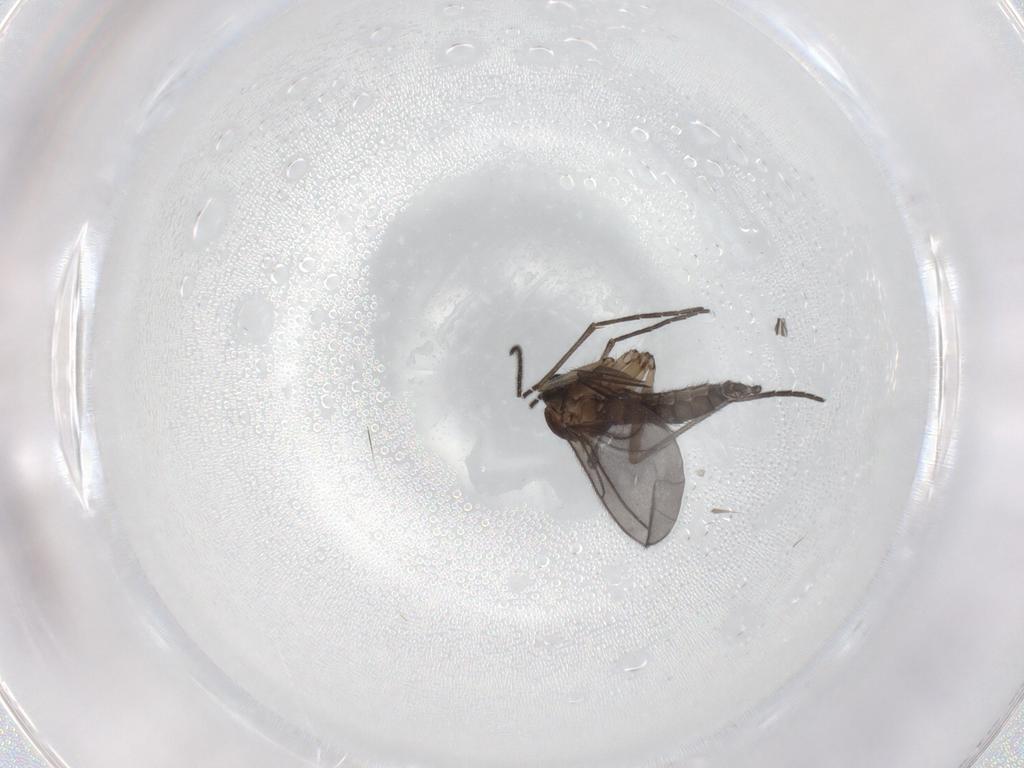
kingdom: Animalia
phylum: Arthropoda
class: Insecta
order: Diptera
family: Sciaridae
